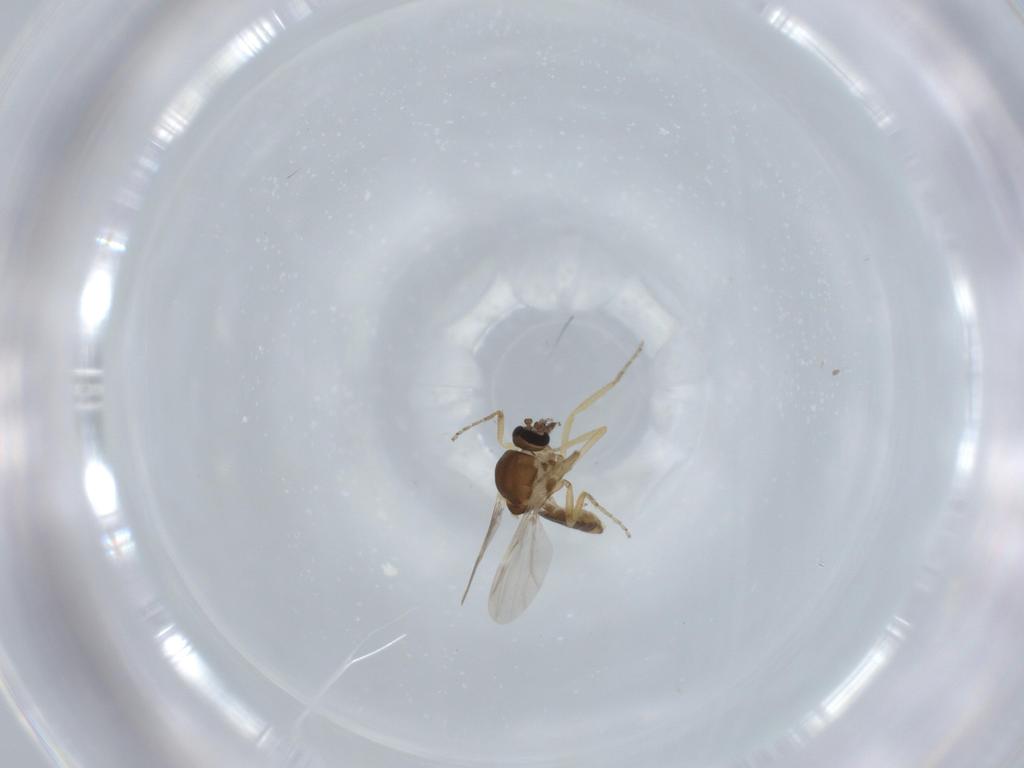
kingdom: Animalia
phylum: Arthropoda
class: Insecta
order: Diptera
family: Ceratopogonidae
